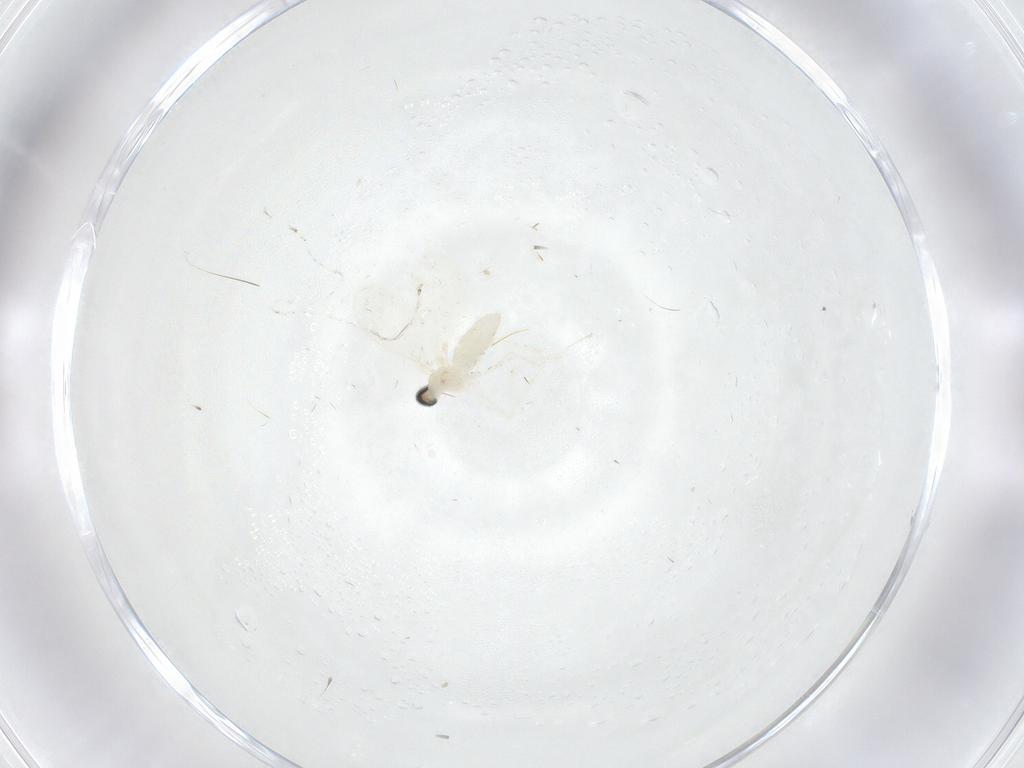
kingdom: Animalia
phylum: Arthropoda
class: Insecta
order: Diptera
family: Cecidomyiidae
